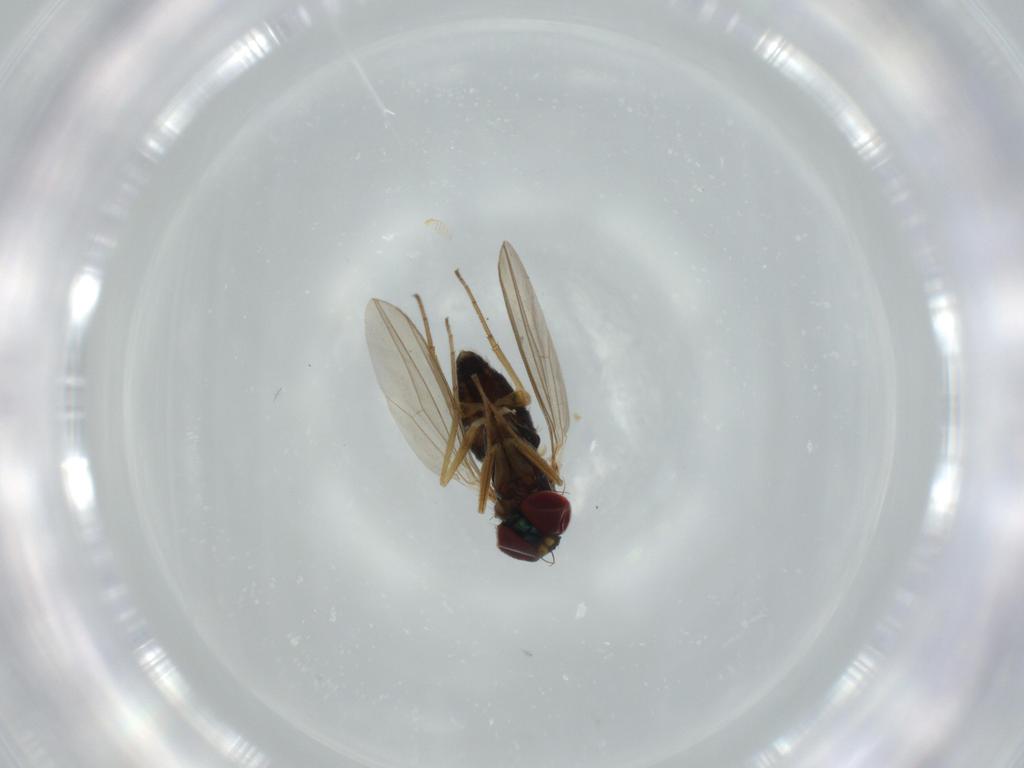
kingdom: Animalia
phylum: Arthropoda
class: Insecta
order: Diptera
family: Dolichopodidae
